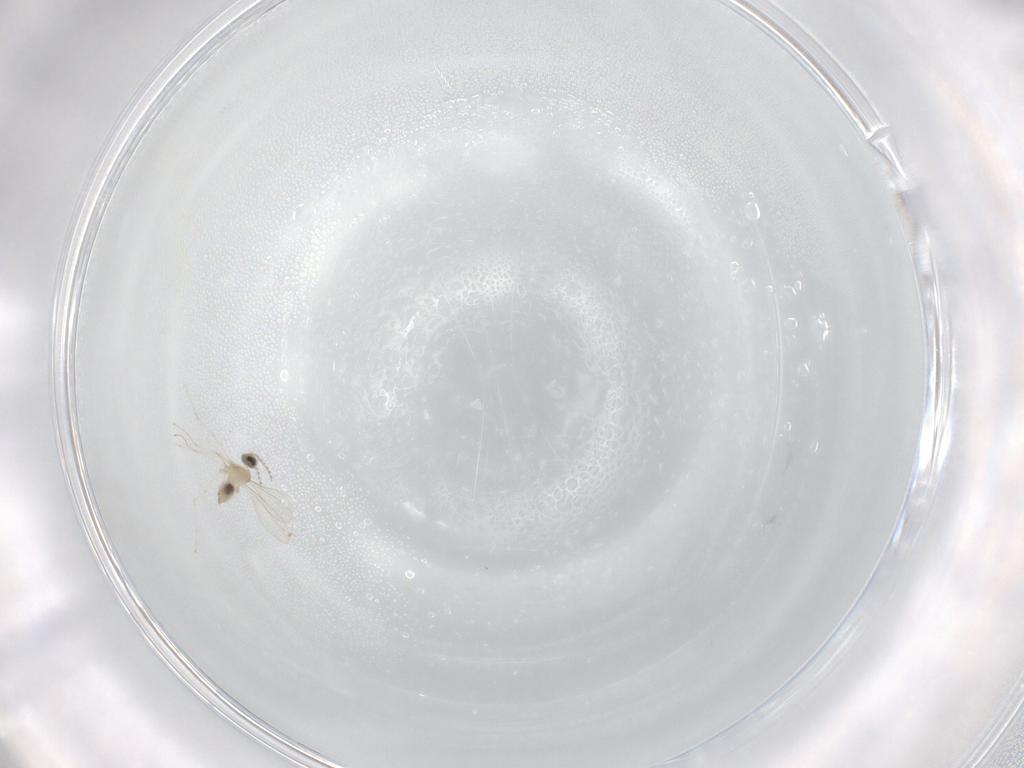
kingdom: Animalia
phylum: Arthropoda
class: Insecta
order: Diptera
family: Cecidomyiidae
